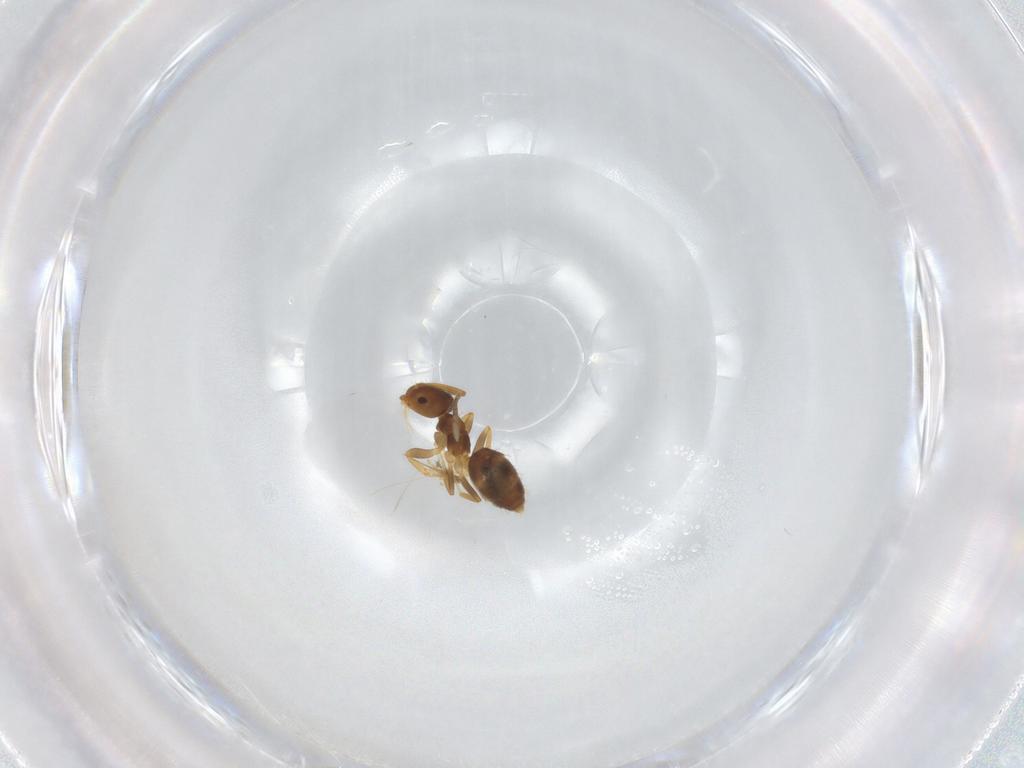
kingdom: Animalia
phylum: Arthropoda
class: Insecta
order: Hymenoptera
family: Formicidae
